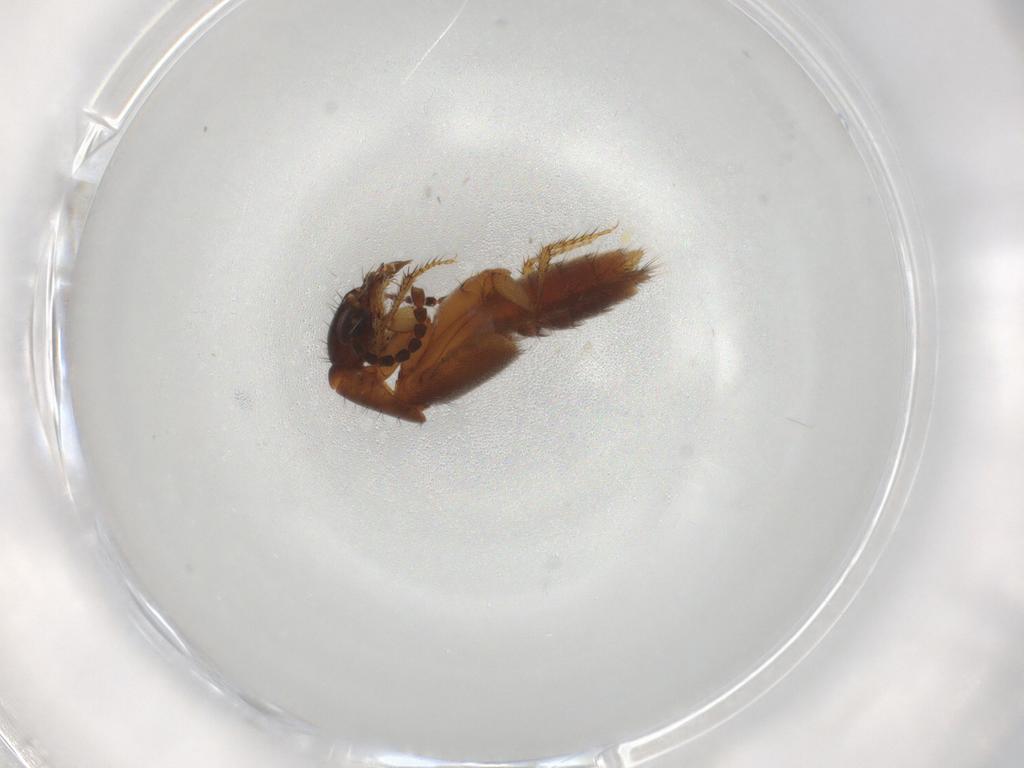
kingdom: Animalia
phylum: Arthropoda
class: Insecta
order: Coleoptera
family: Staphylinidae
